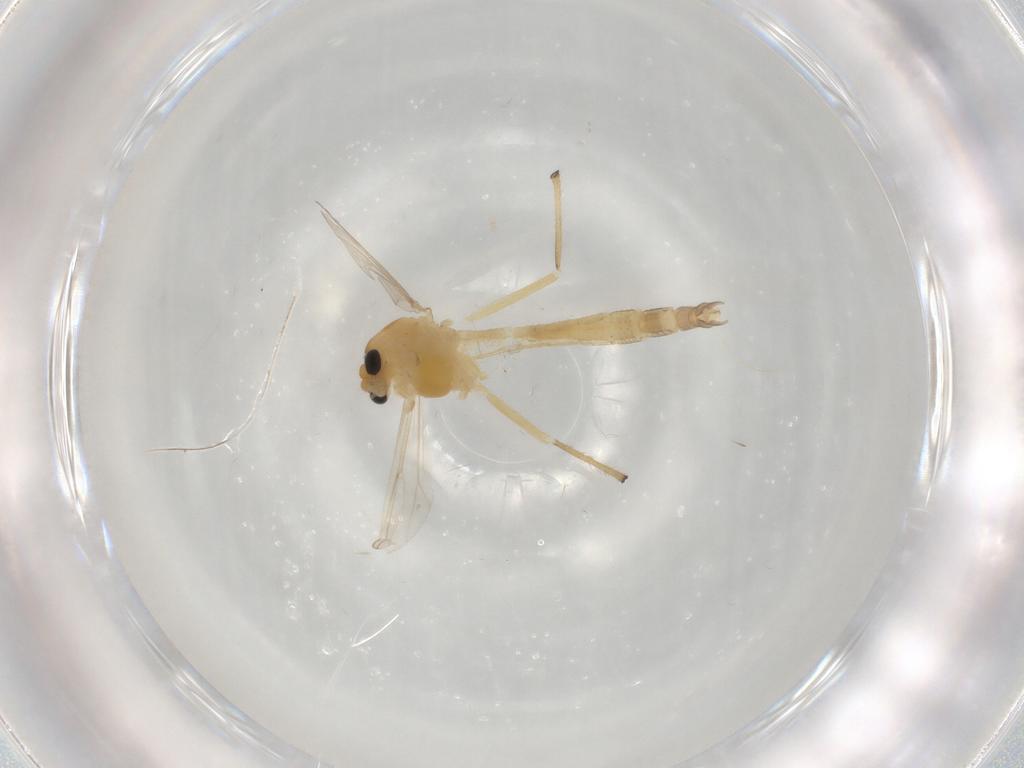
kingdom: Animalia
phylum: Arthropoda
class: Insecta
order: Diptera
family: Chironomidae
